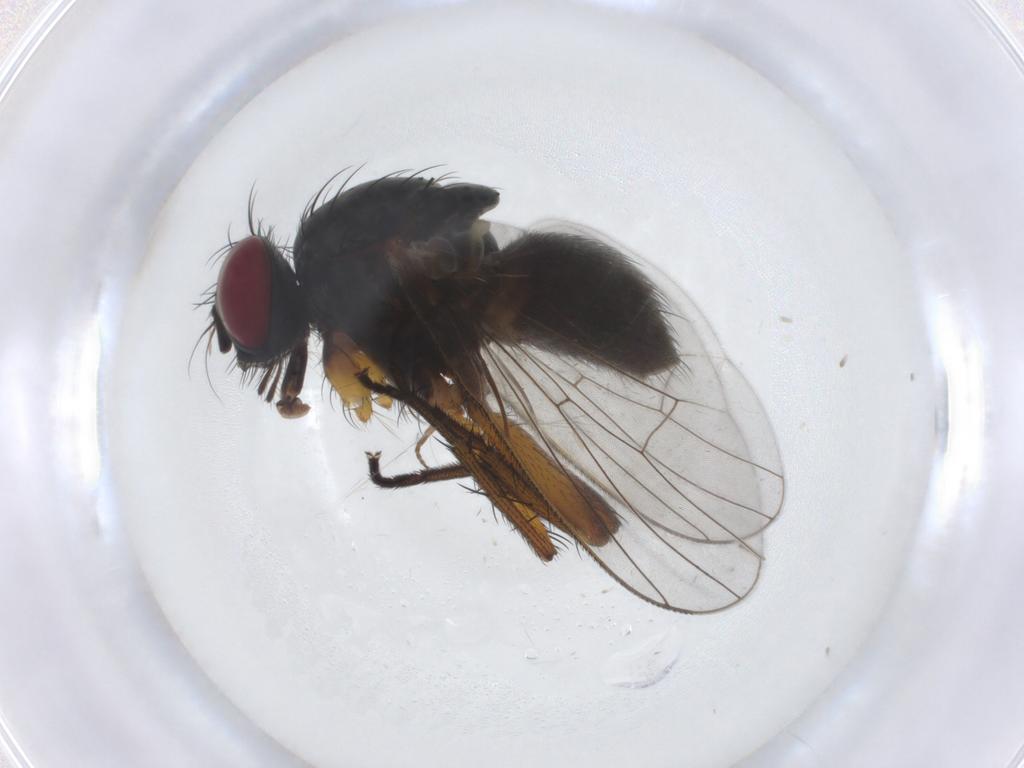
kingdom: Animalia
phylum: Arthropoda
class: Insecta
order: Diptera
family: Muscidae
